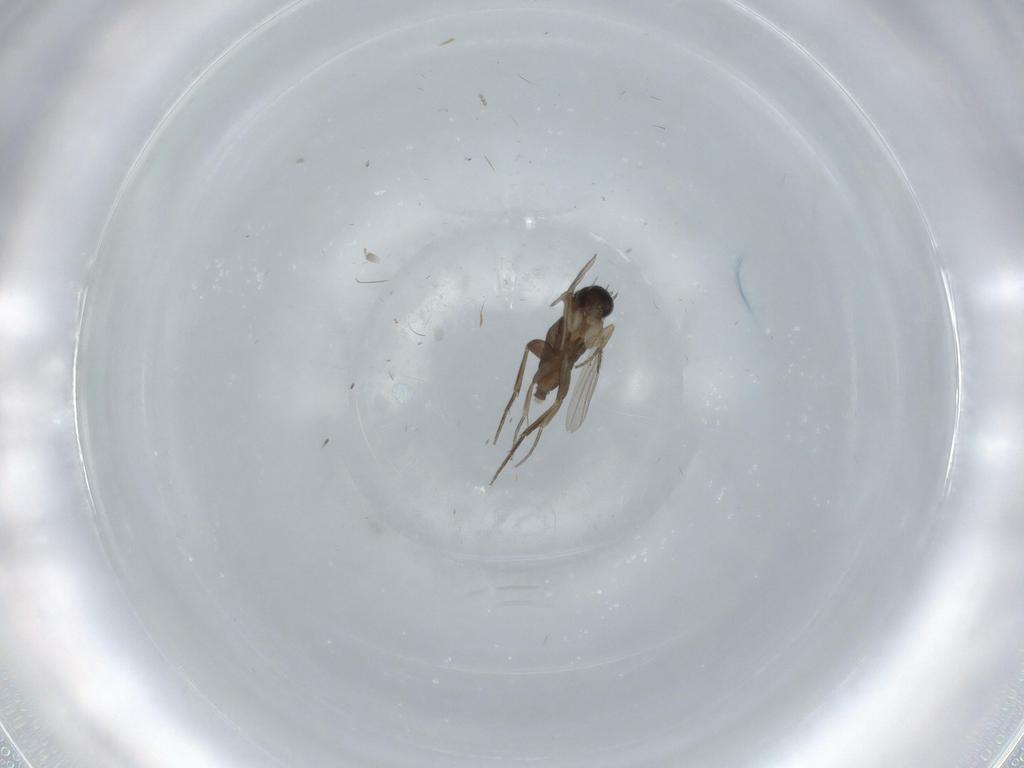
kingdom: Animalia
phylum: Arthropoda
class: Insecta
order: Diptera
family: Phoridae
